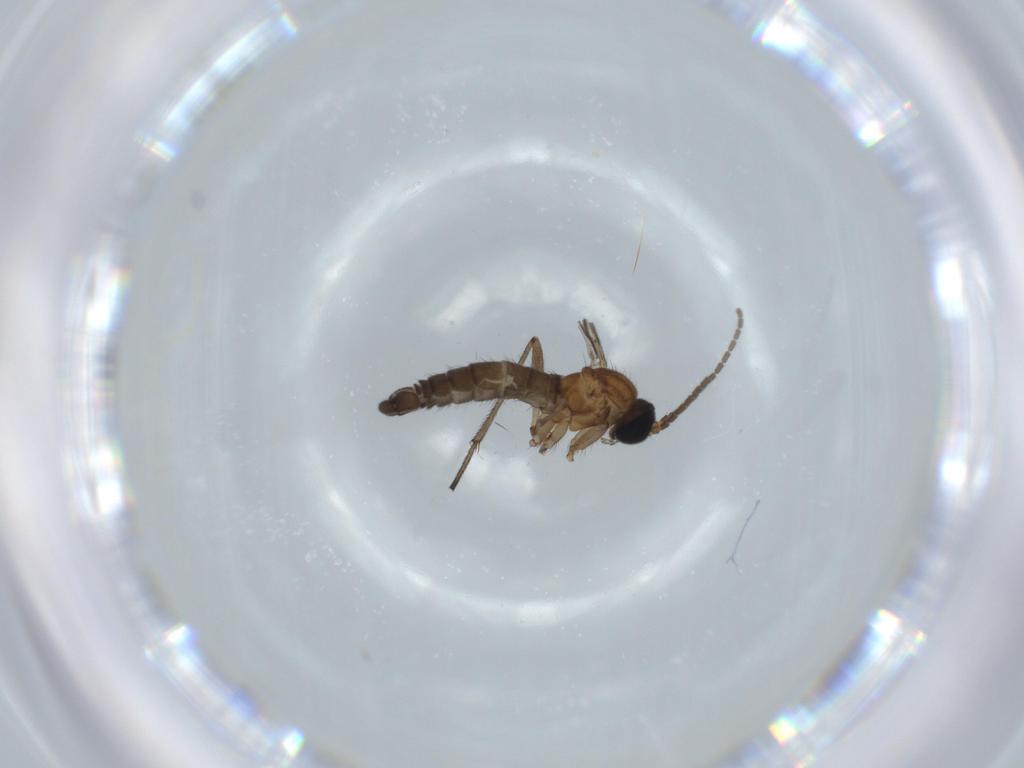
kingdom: Animalia
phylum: Arthropoda
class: Insecta
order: Diptera
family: Sciaridae
